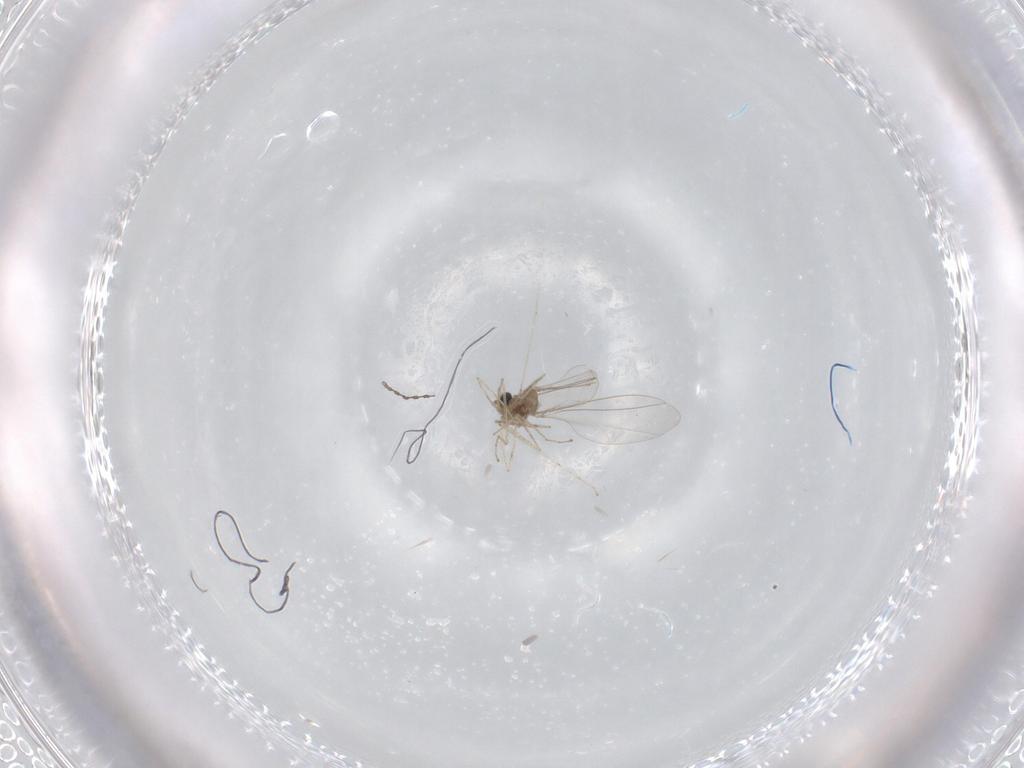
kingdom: Animalia
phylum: Arthropoda
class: Insecta
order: Diptera
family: Cecidomyiidae
